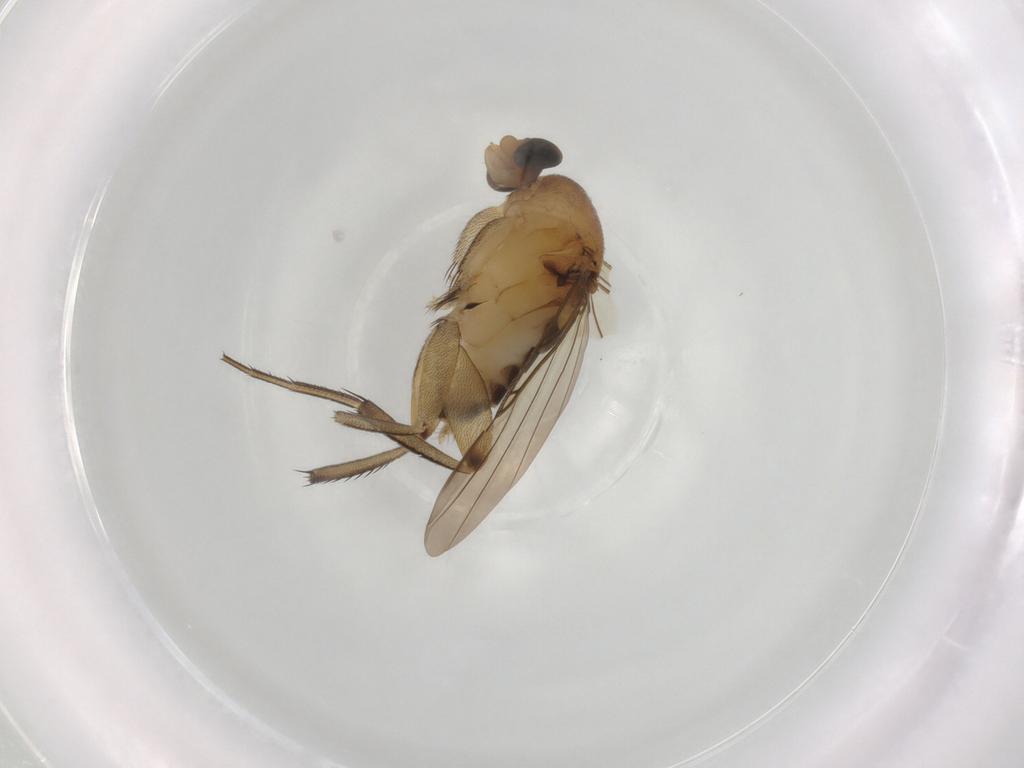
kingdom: Animalia
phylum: Arthropoda
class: Insecta
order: Diptera
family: Phoridae
